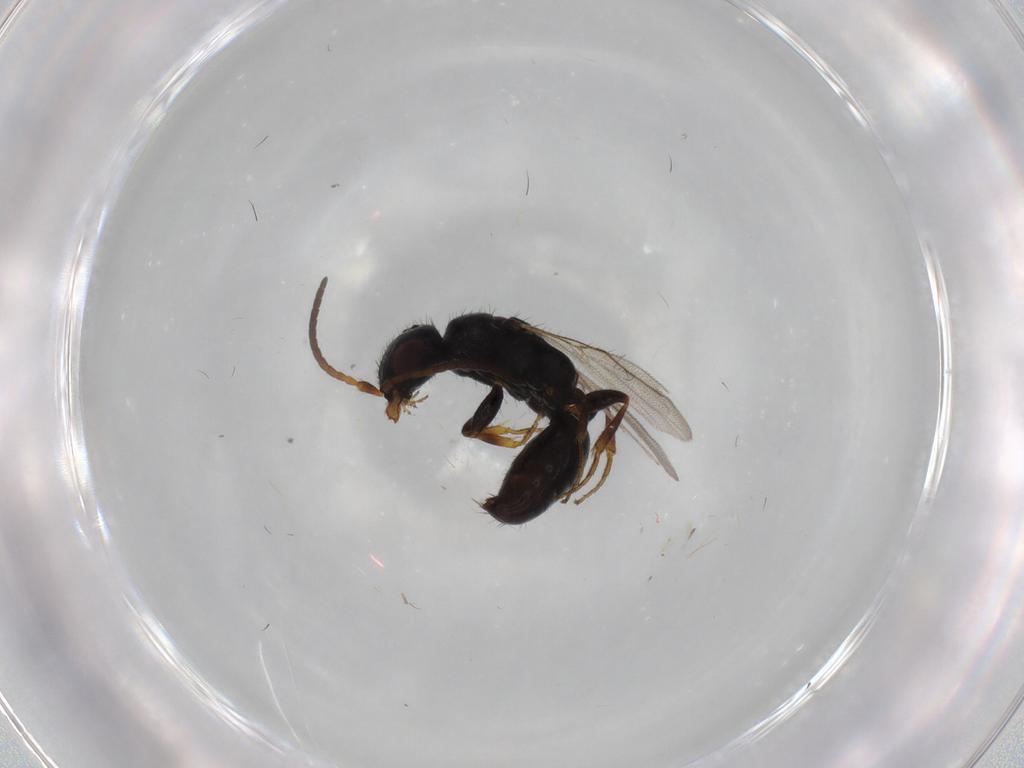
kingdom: Animalia
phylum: Arthropoda
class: Insecta
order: Hymenoptera
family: Bethylidae
